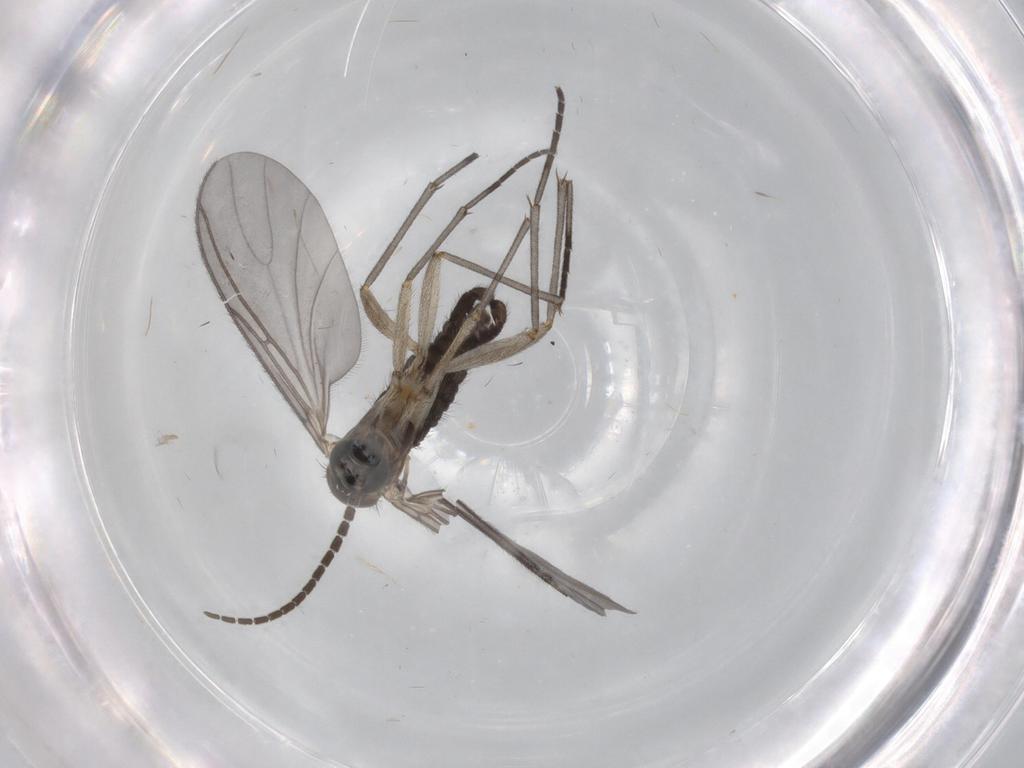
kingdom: Animalia
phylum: Arthropoda
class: Insecta
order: Diptera
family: Sciaridae
